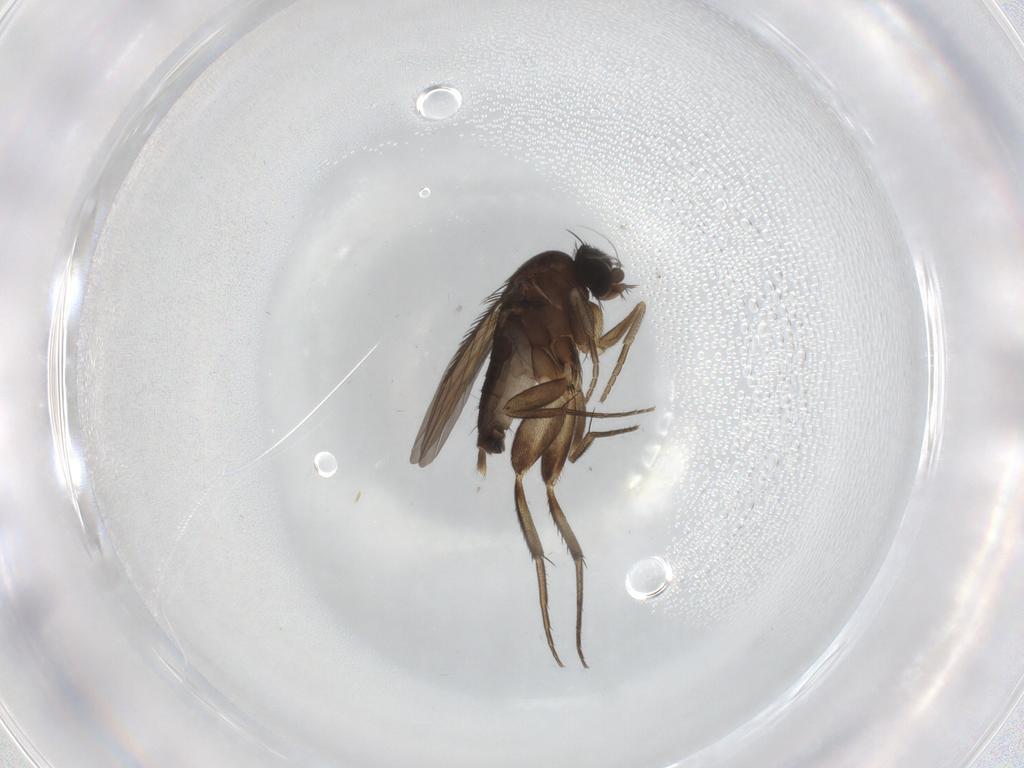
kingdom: Animalia
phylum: Arthropoda
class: Insecta
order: Diptera
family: Phoridae
